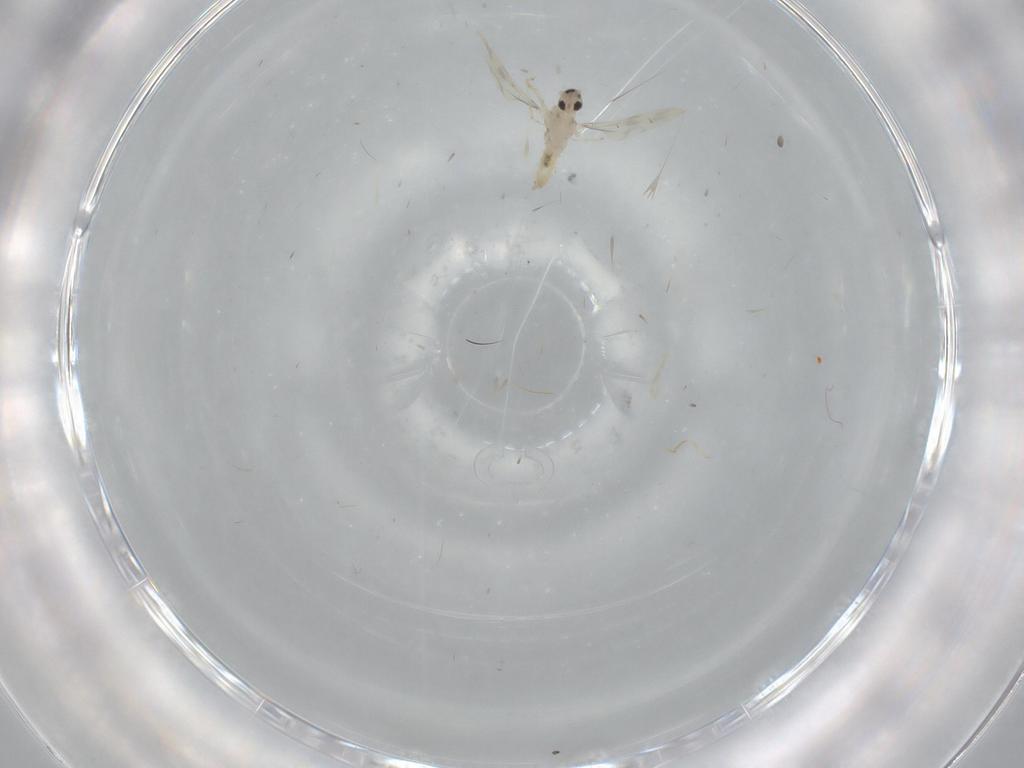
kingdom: Animalia
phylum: Arthropoda
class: Insecta
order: Diptera
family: Cecidomyiidae
